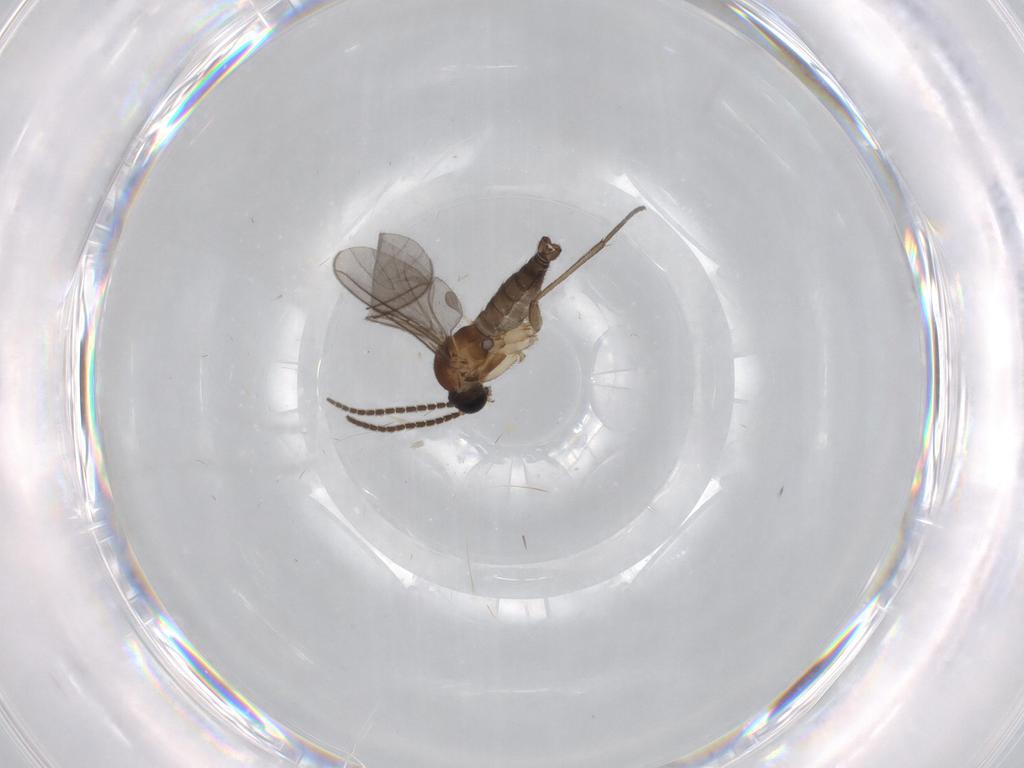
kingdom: Animalia
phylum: Arthropoda
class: Insecta
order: Diptera
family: Sciaridae
